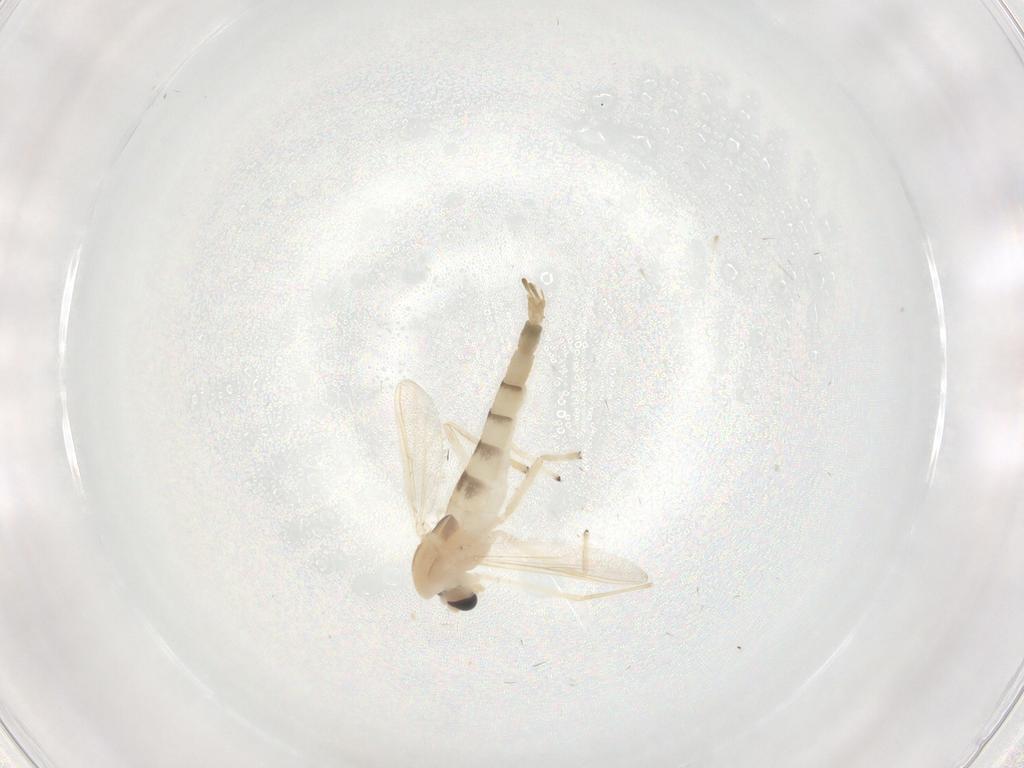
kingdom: Animalia
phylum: Arthropoda
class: Insecta
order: Diptera
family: Chironomidae
